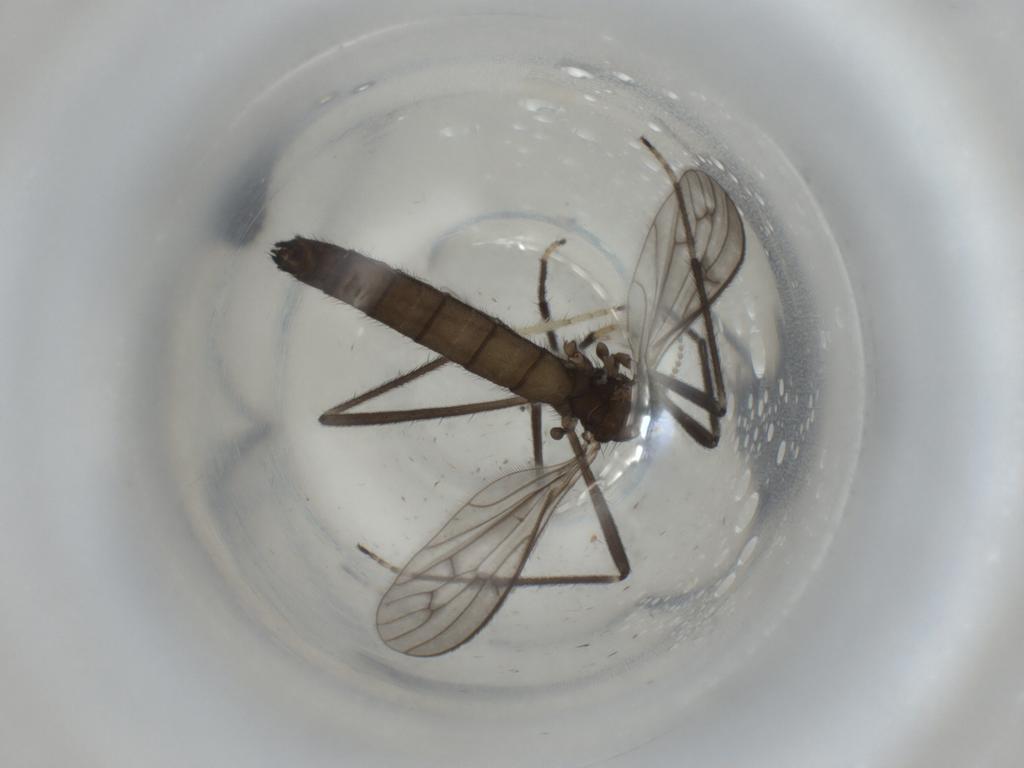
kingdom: Animalia
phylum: Arthropoda
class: Insecta
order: Diptera
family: Limoniidae
